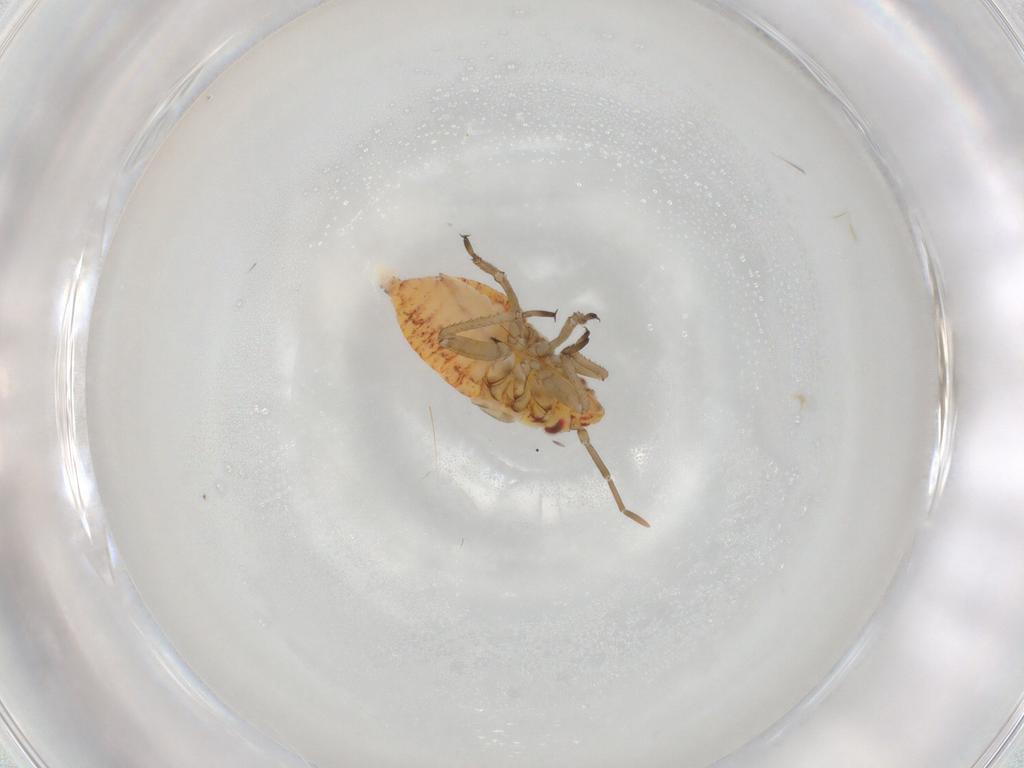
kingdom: Animalia
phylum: Arthropoda
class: Insecta
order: Hemiptera
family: Miridae
